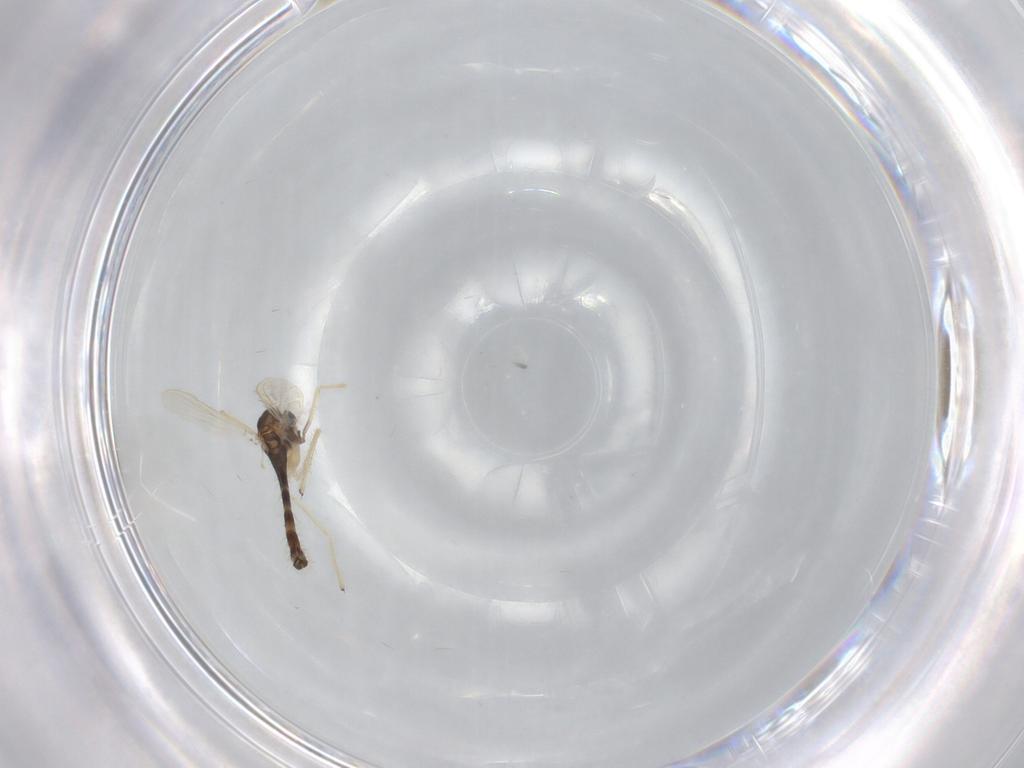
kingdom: Animalia
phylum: Arthropoda
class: Insecta
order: Diptera
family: Chironomidae
